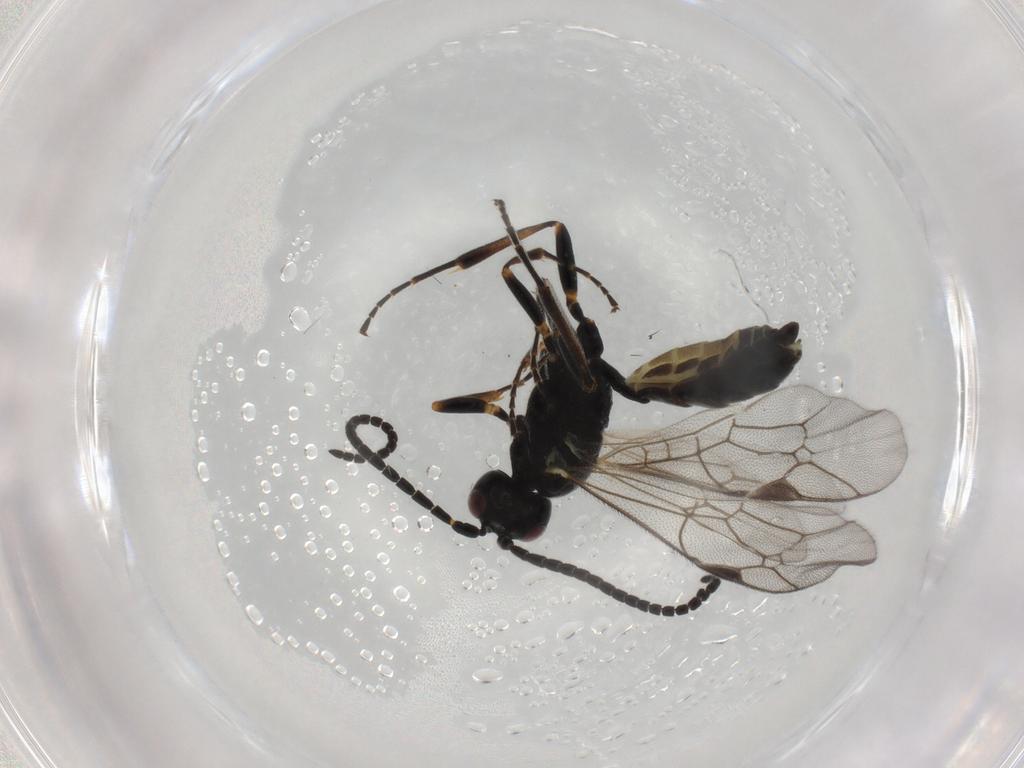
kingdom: Animalia
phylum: Arthropoda
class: Insecta
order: Hymenoptera
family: Ichneumonidae
